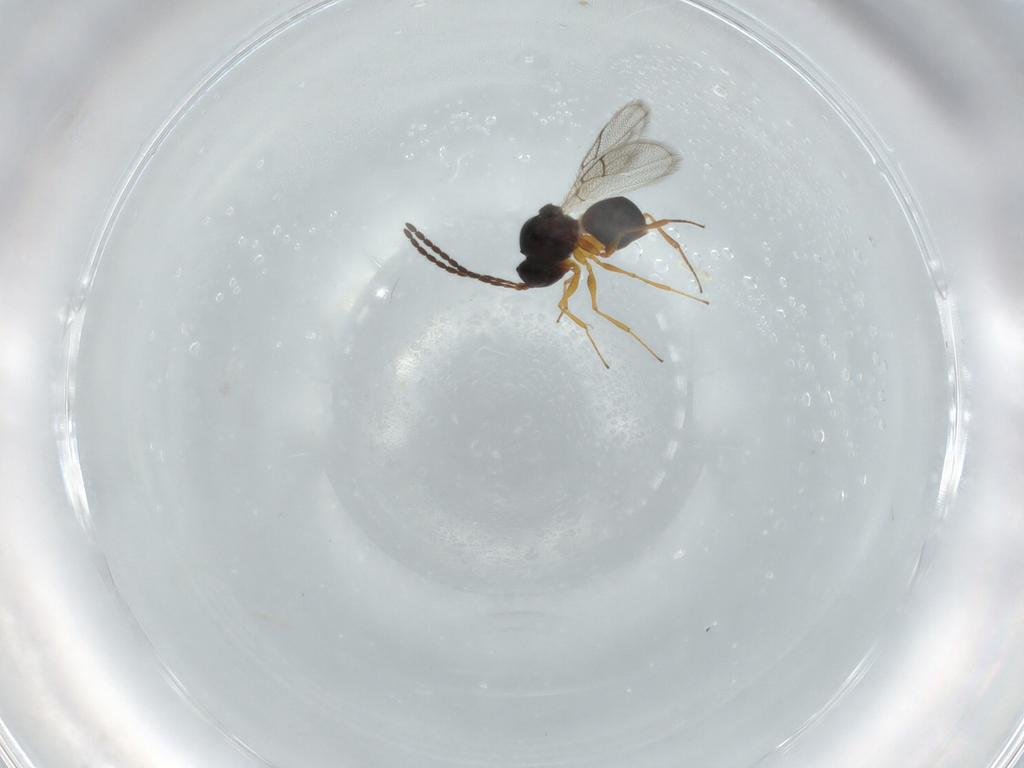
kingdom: Animalia
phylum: Arthropoda
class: Insecta
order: Hymenoptera
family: Figitidae
